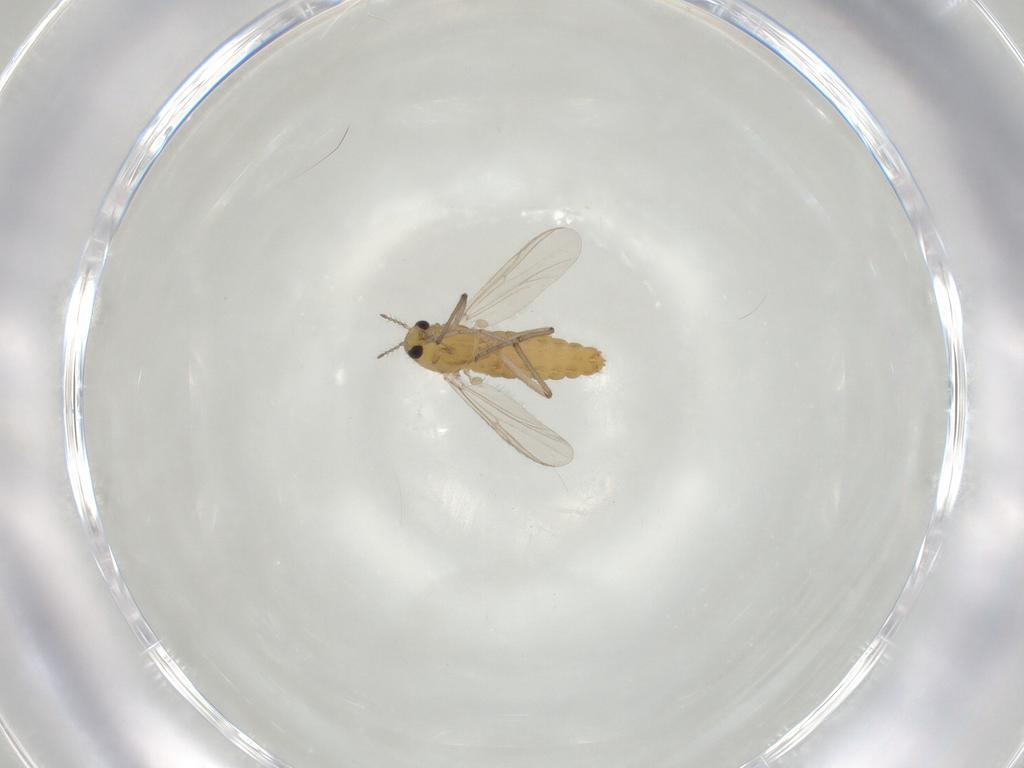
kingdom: Animalia
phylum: Arthropoda
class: Insecta
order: Diptera
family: Chironomidae
